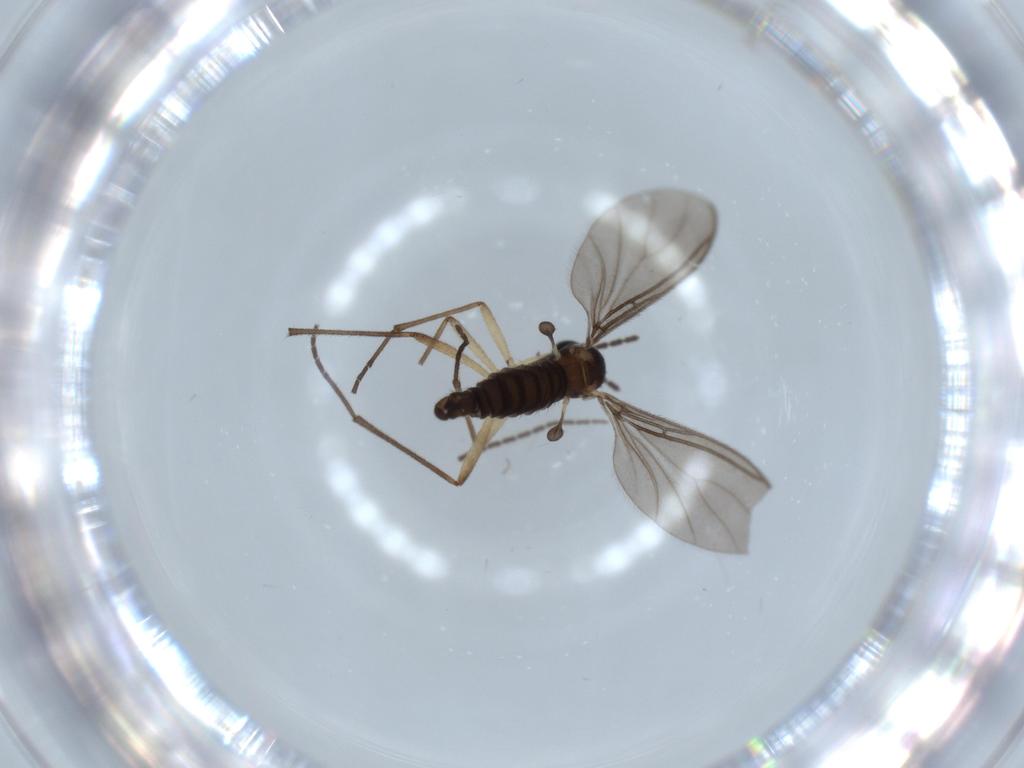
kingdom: Animalia
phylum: Arthropoda
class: Insecta
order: Diptera
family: Sciaridae
